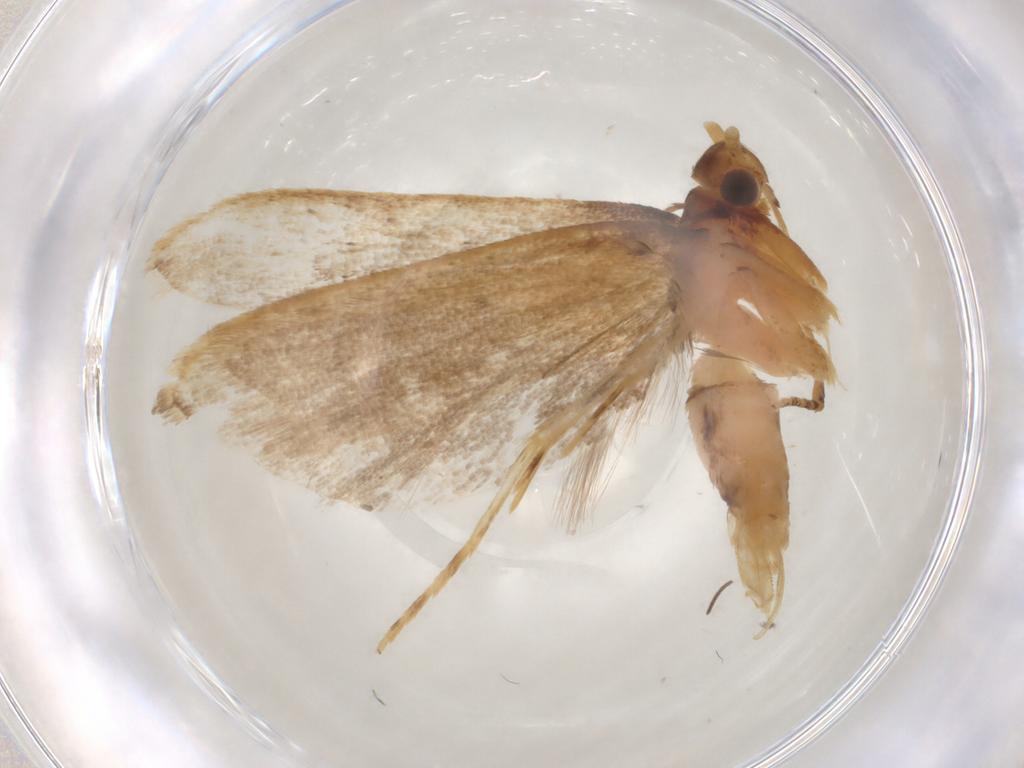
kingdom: Animalia
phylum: Arthropoda
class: Insecta
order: Lepidoptera
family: Lecithoceridae
